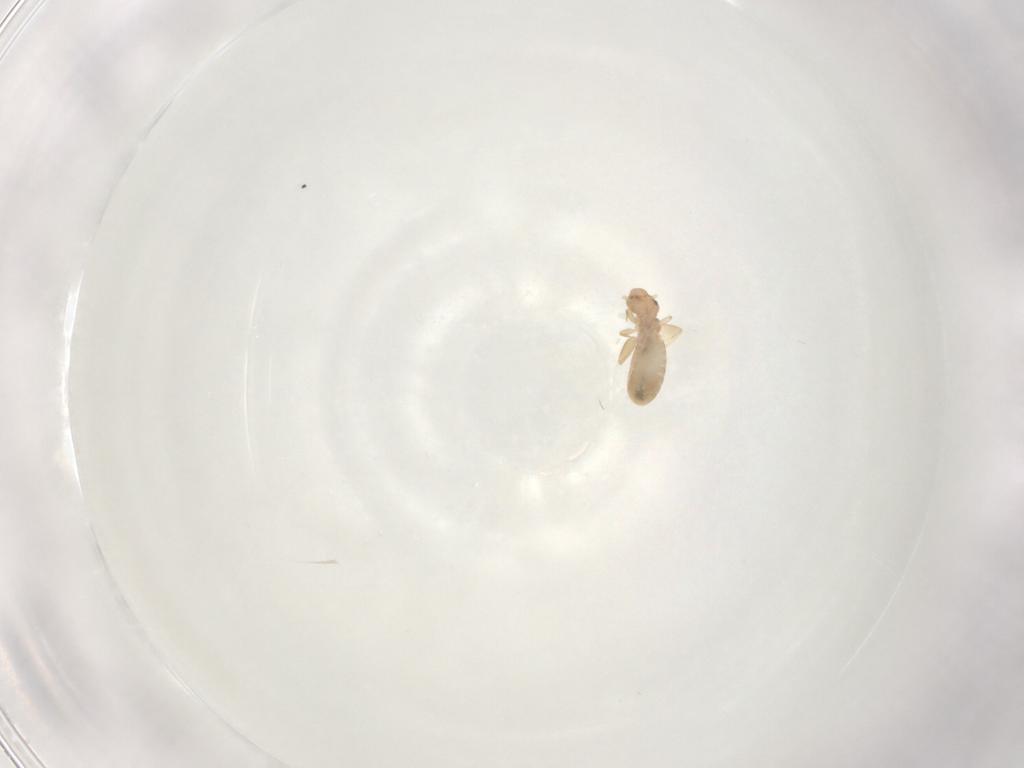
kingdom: Animalia
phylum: Arthropoda
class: Insecta
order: Psocodea
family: Liposcelididae
